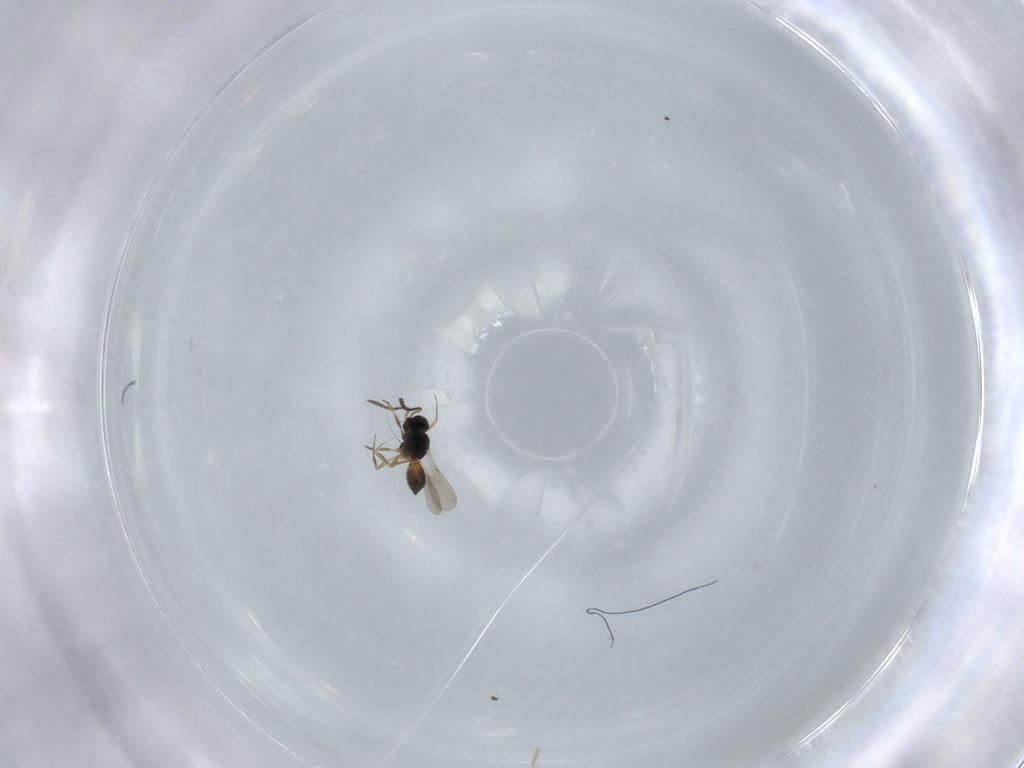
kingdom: Animalia
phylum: Arthropoda
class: Insecta
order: Hymenoptera
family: Scelionidae
